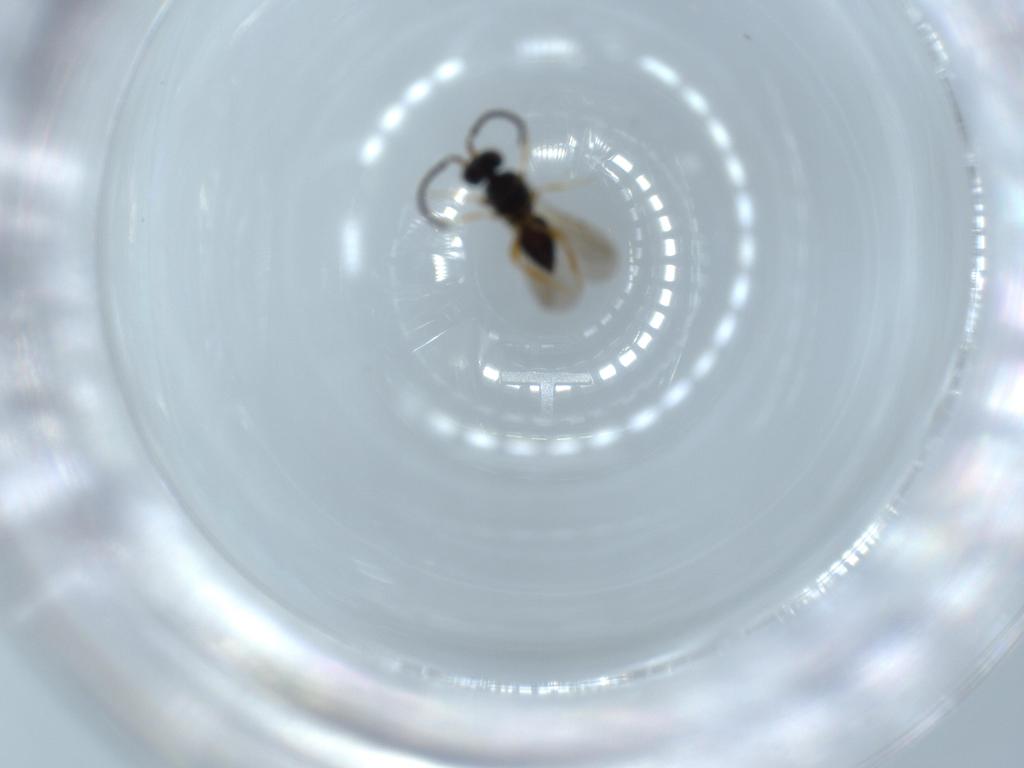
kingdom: Animalia
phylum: Arthropoda
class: Insecta
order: Hymenoptera
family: Ceraphronidae
